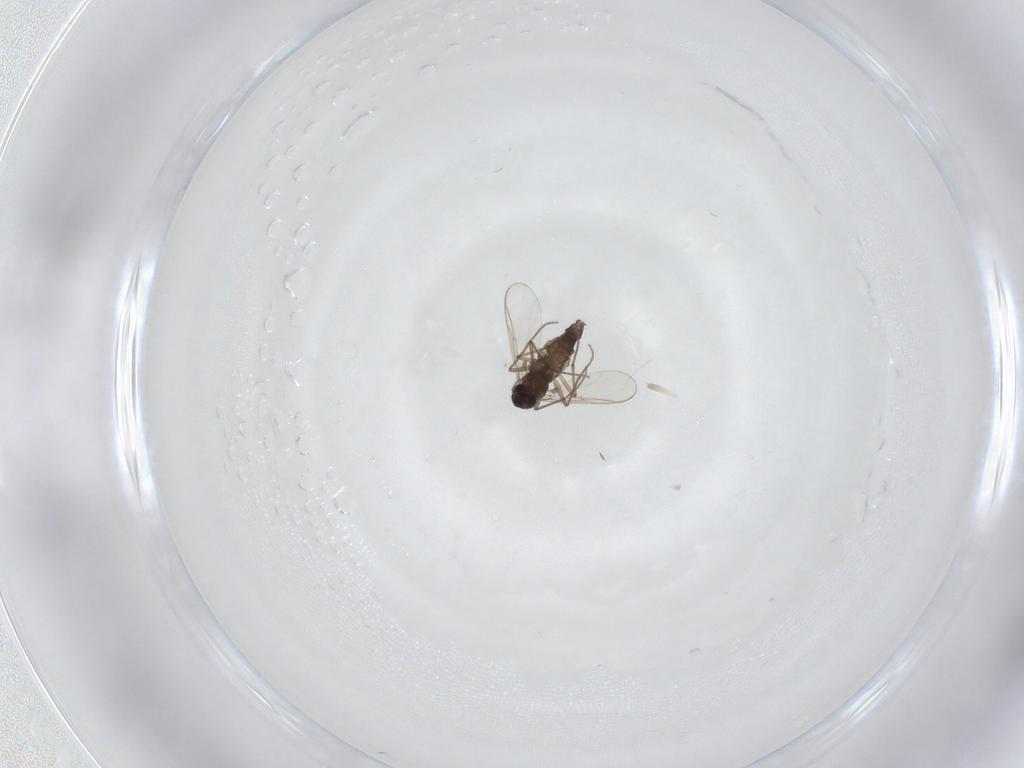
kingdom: Animalia
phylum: Arthropoda
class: Insecta
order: Diptera
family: Chironomidae
